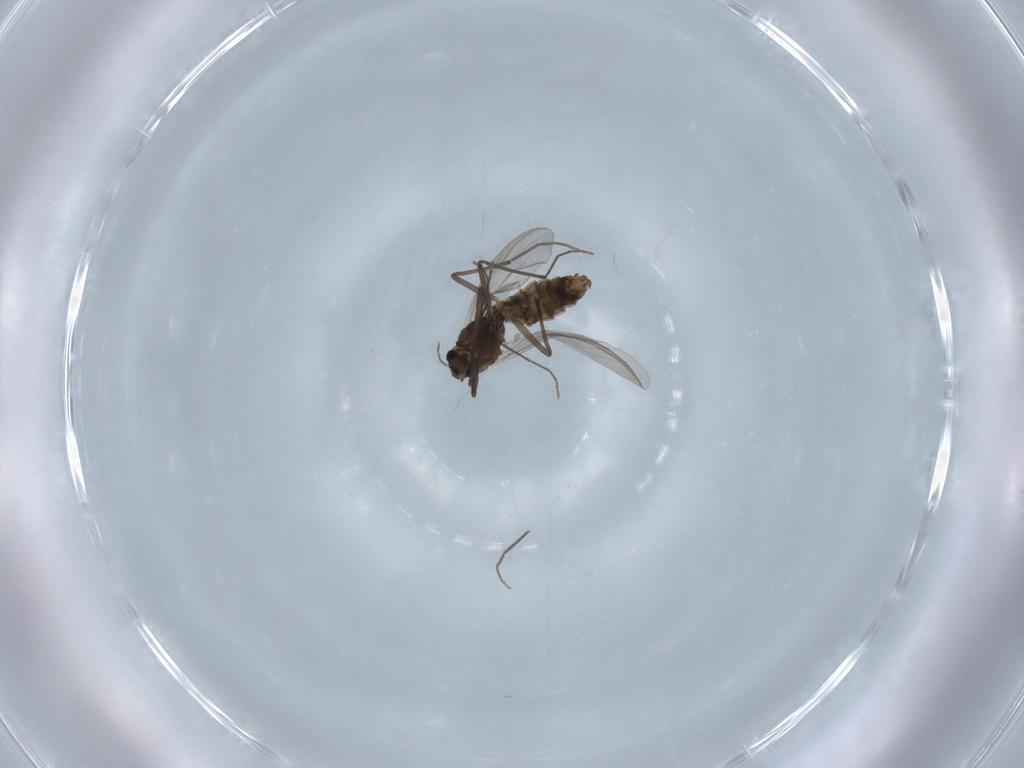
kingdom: Animalia
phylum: Arthropoda
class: Insecta
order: Diptera
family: Chironomidae
